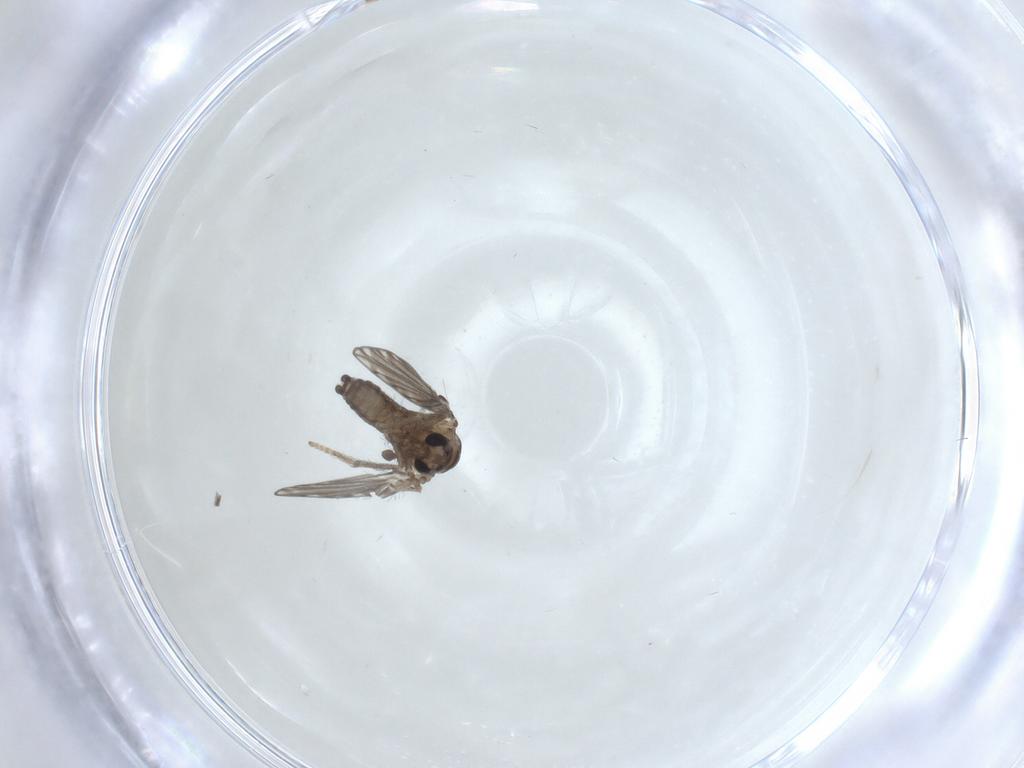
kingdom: Animalia
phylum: Arthropoda
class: Insecta
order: Diptera
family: Psychodidae
